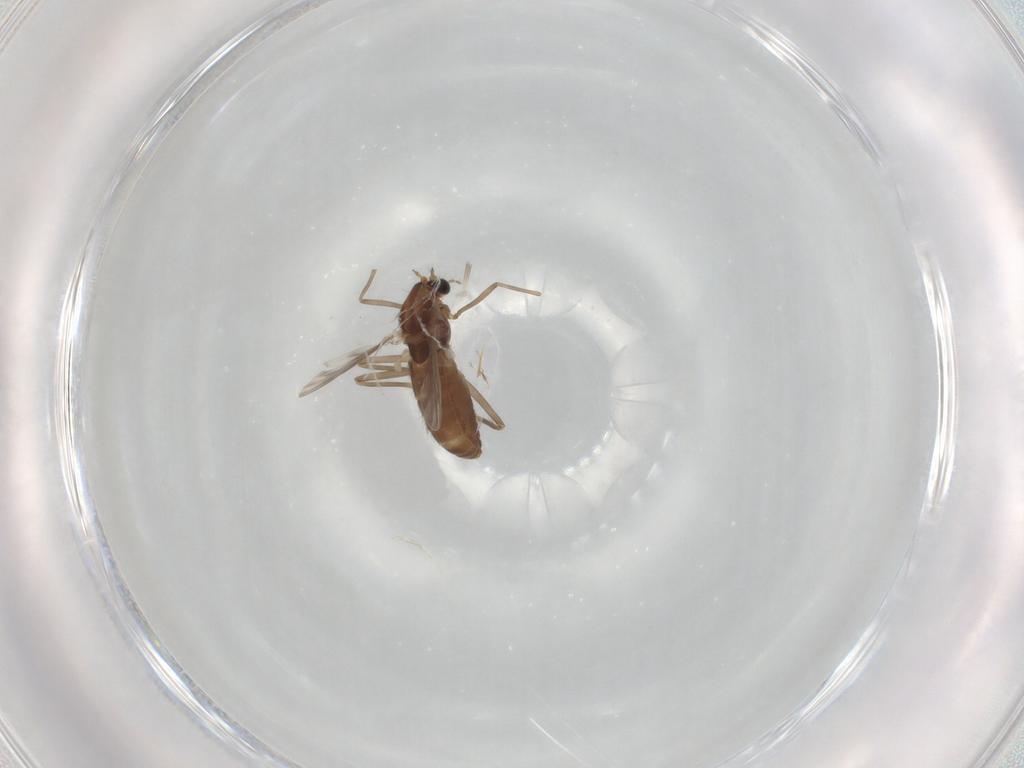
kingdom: Animalia
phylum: Arthropoda
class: Insecta
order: Diptera
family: Chironomidae
